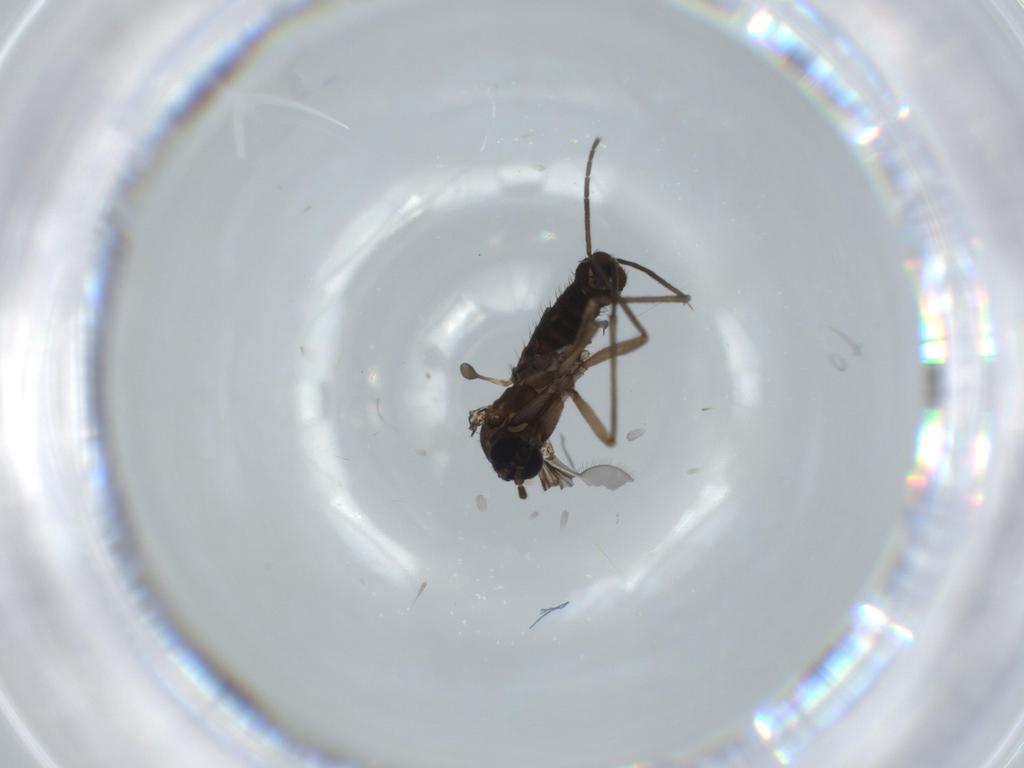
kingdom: Animalia
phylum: Arthropoda
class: Insecta
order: Diptera
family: Sciaridae
